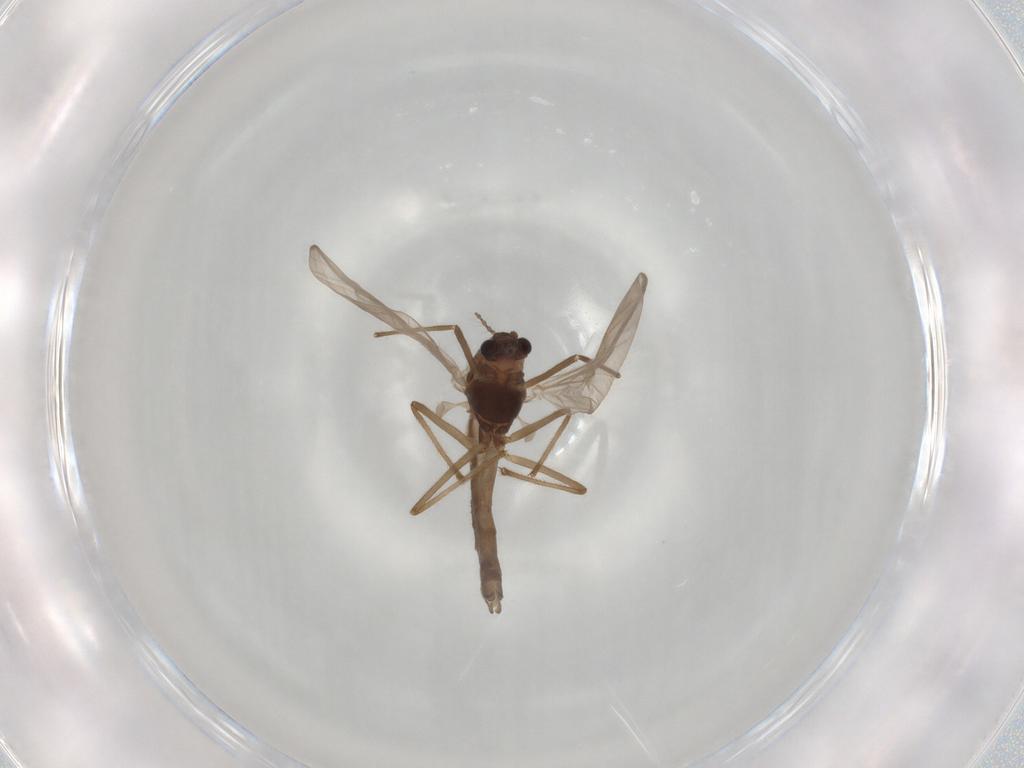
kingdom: Animalia
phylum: Arthropoda
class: Insecta
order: Diptera
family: Chironomidae
